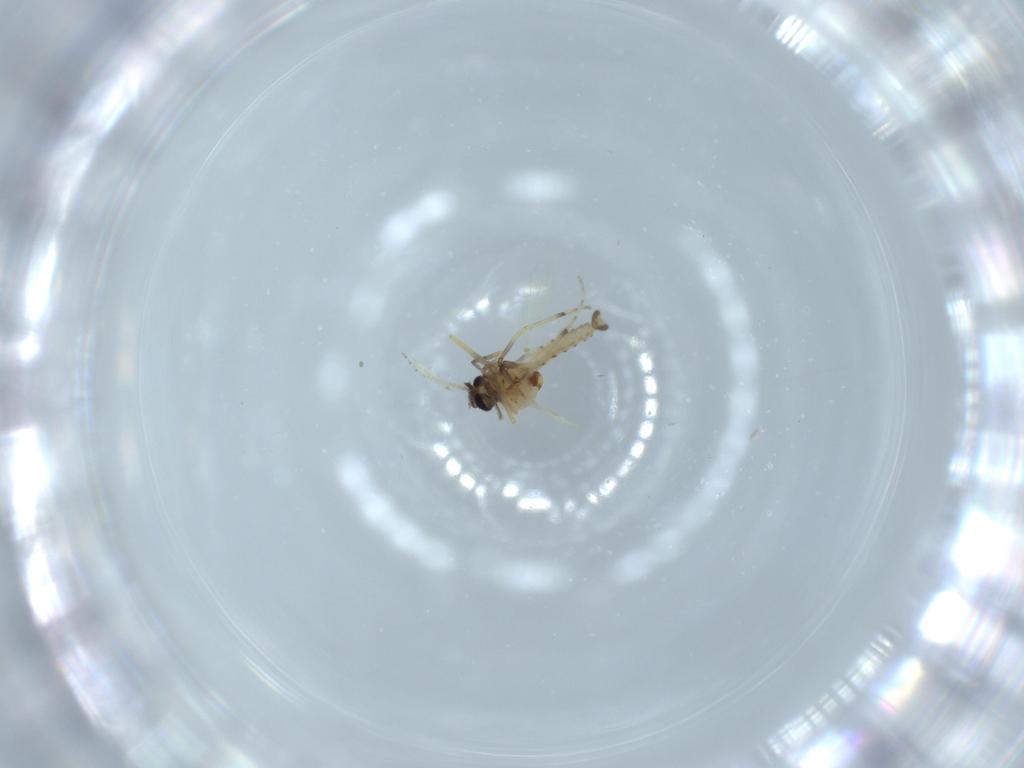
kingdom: Animalia
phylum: Arthropoda
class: Insecta
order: Diptera
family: Ceratopogonidae
